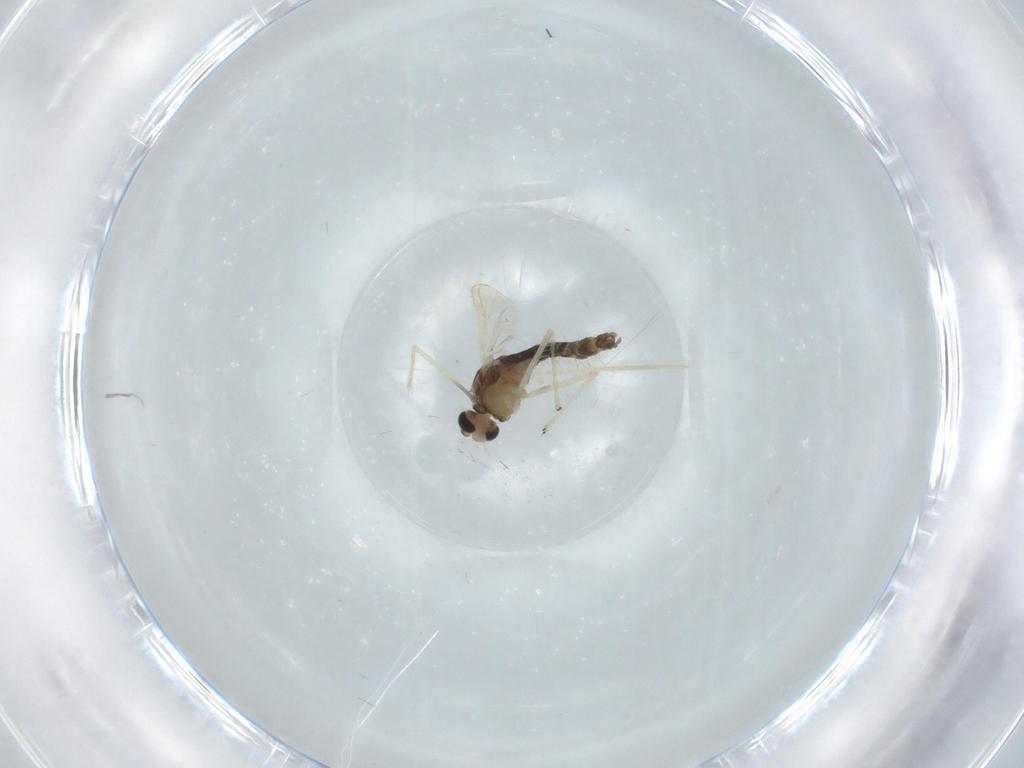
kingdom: Animalia
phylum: Arthropoda
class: Insecta
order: Diptera
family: Chironomidae
